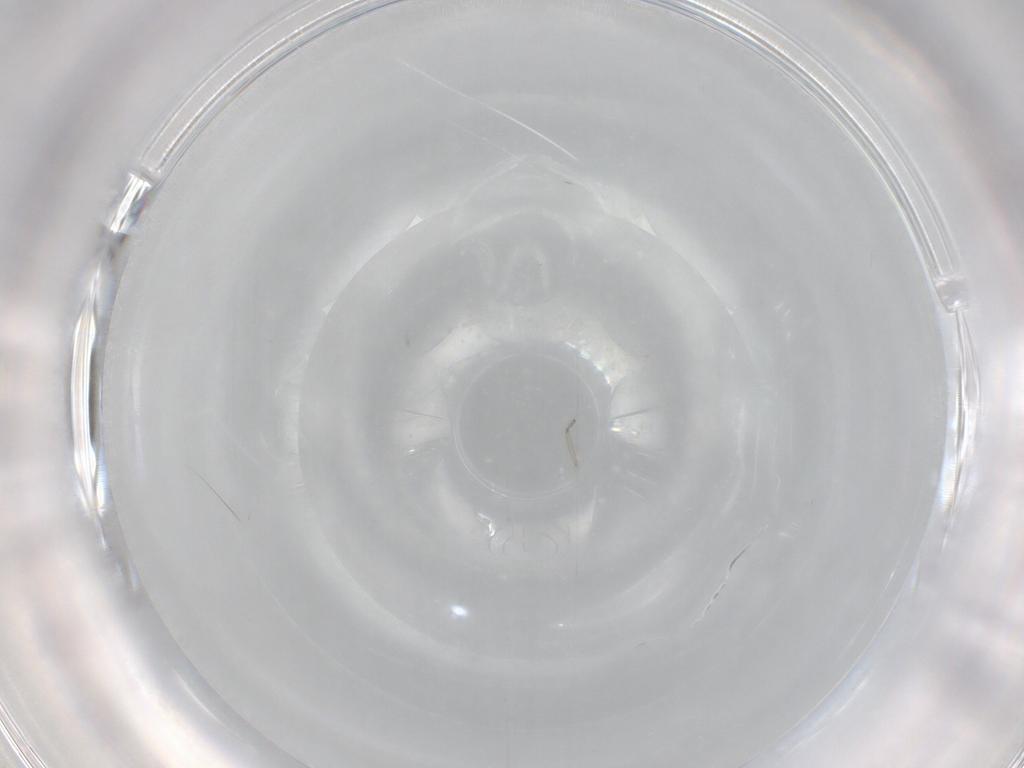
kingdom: Animalia
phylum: Arthropoda
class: Insecta
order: Diptera
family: Ceratopogonidae
